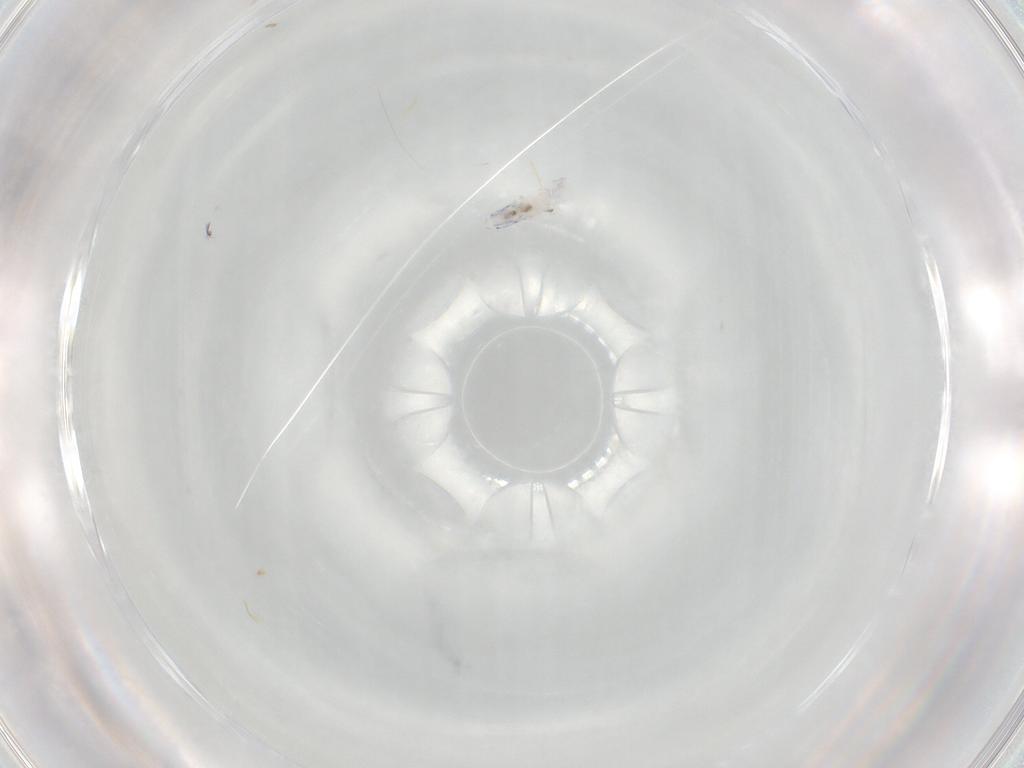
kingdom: Animalia
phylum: Arthropoda
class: Collembola
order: Entomobryomorpha
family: Entomobryidae
